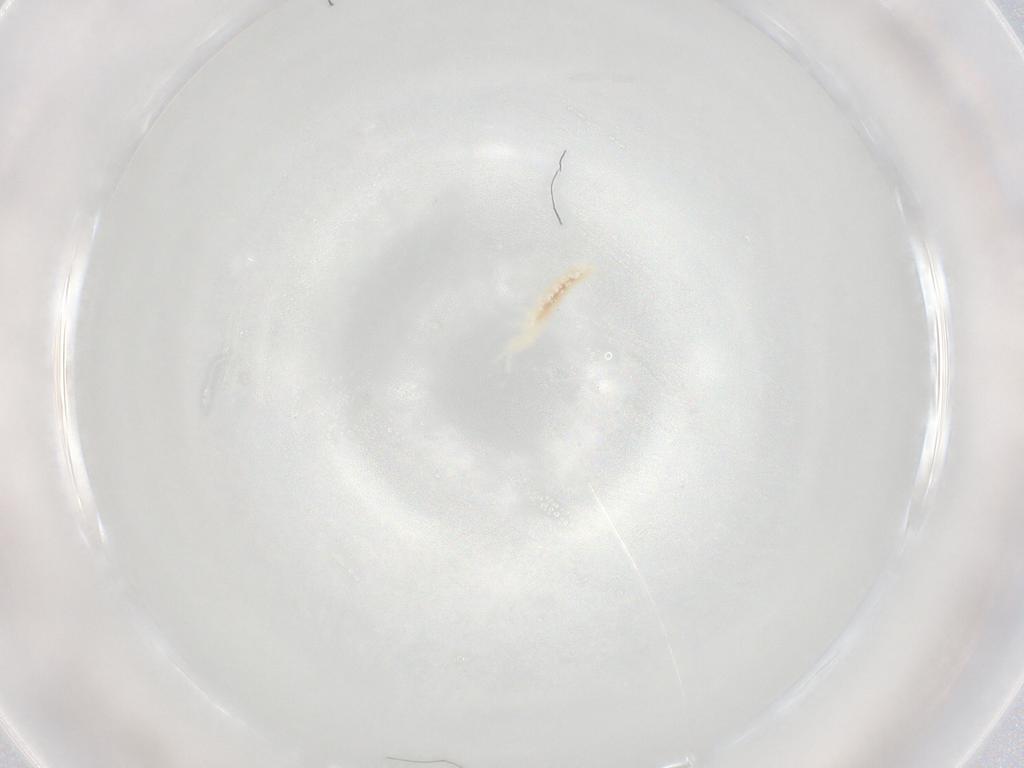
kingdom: Animalia
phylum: Arthropoda
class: Collembola
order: Poduromorpha
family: Onychiuridae
